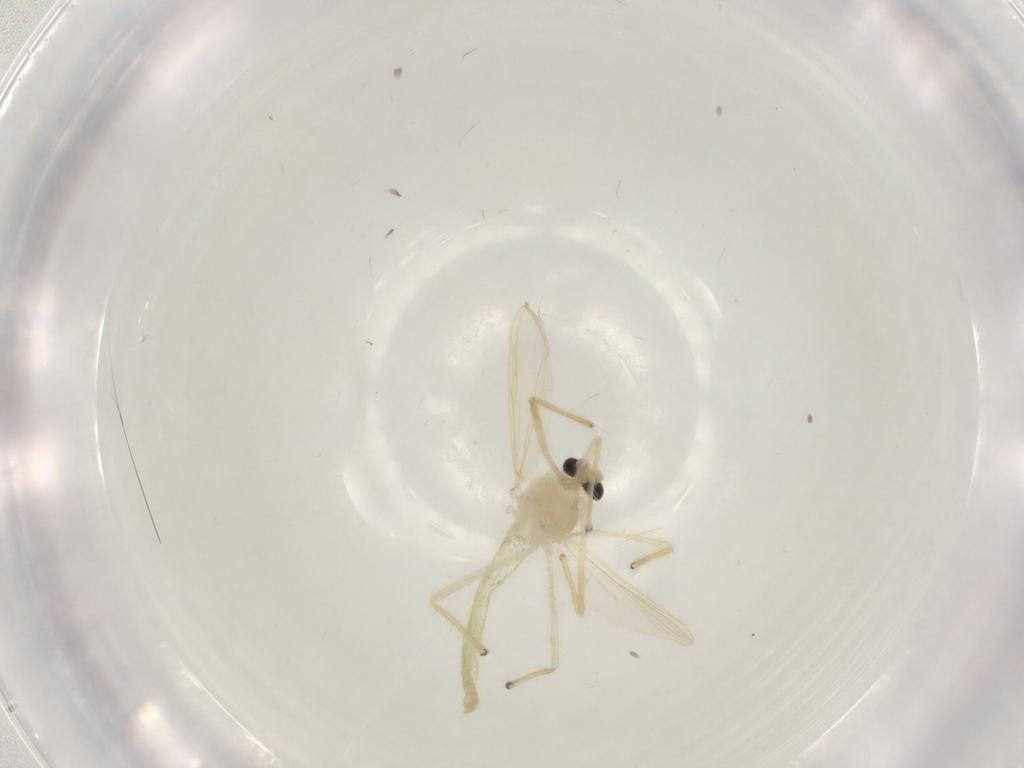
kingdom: Animalia
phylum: Arthropoda
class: Insecta
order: Diptera
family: Chironomidae
